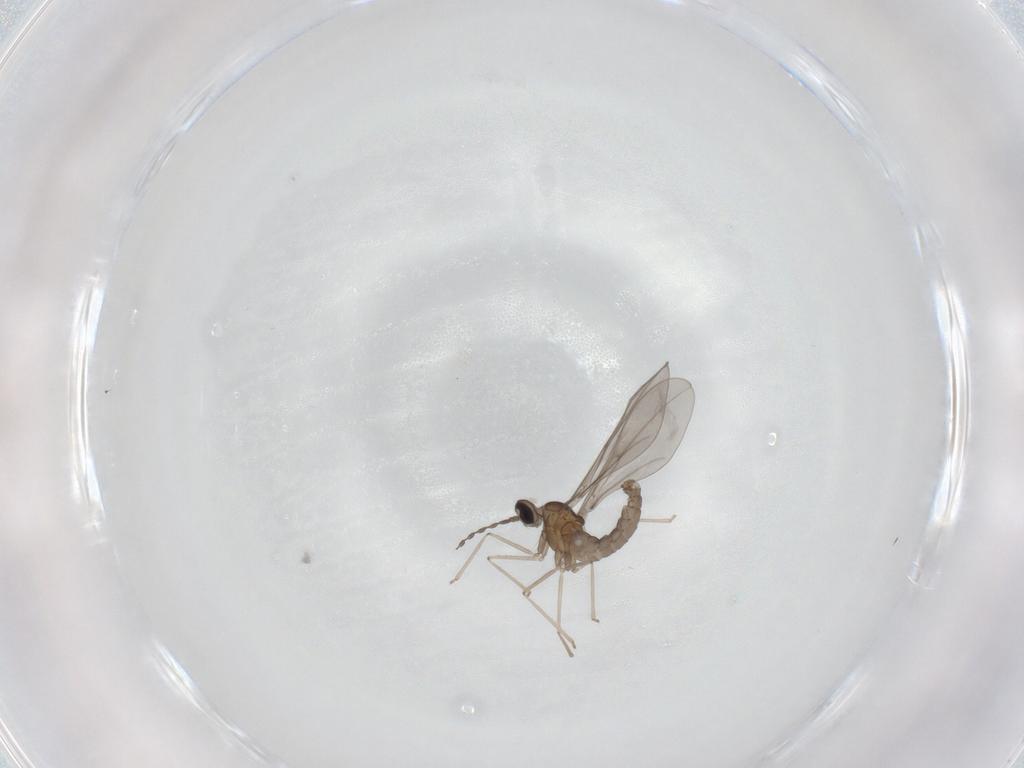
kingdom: Animalia
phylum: Arthropoda
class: Insecta
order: Diptera
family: Cecidomyiidae
